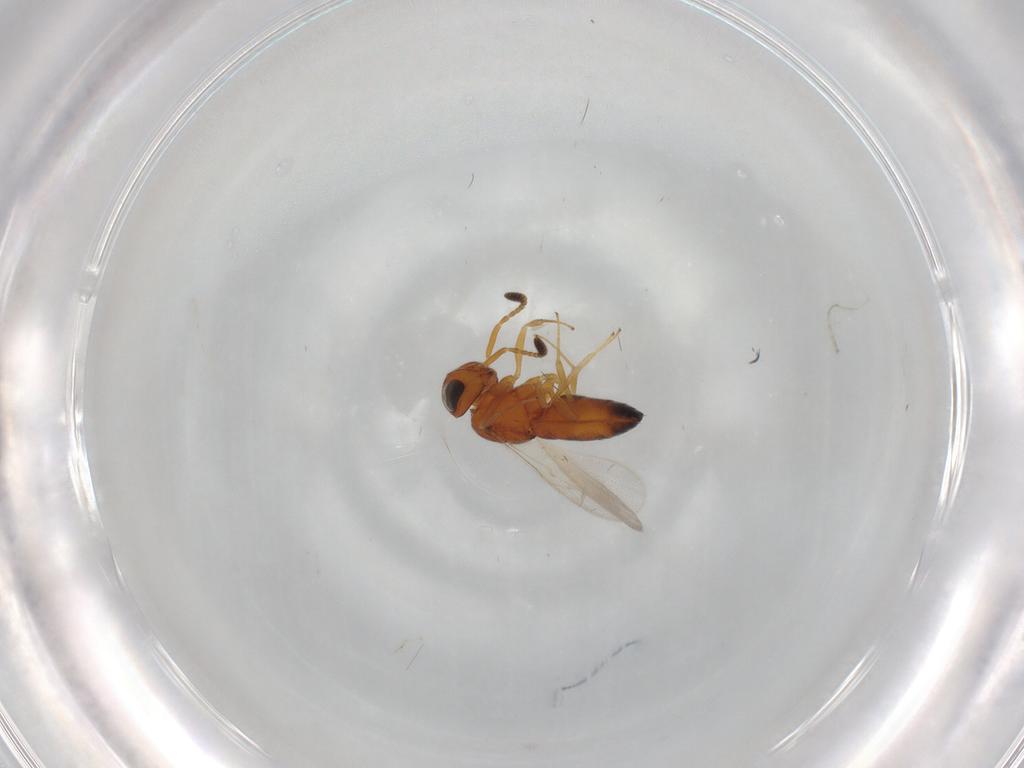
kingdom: Animalia
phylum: Arthropoda
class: Insecta
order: Hymenoptera
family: Scelionidae
